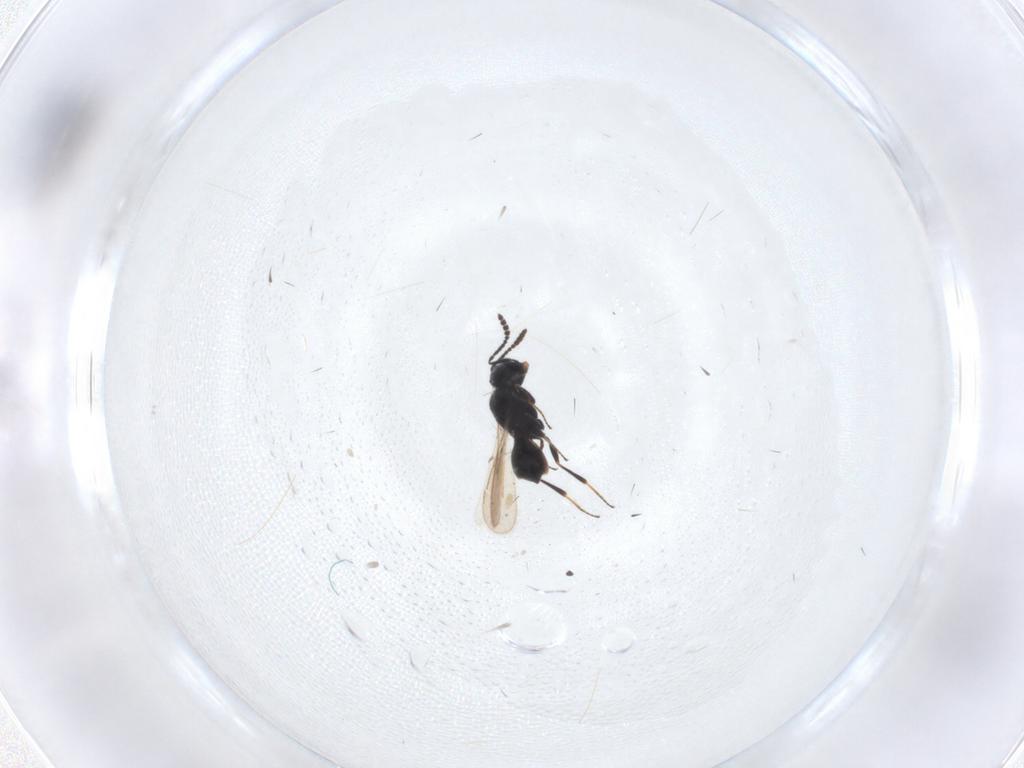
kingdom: Animalia
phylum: Arthropoda
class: Insecta
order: Hymenoptera
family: Scelionidae
